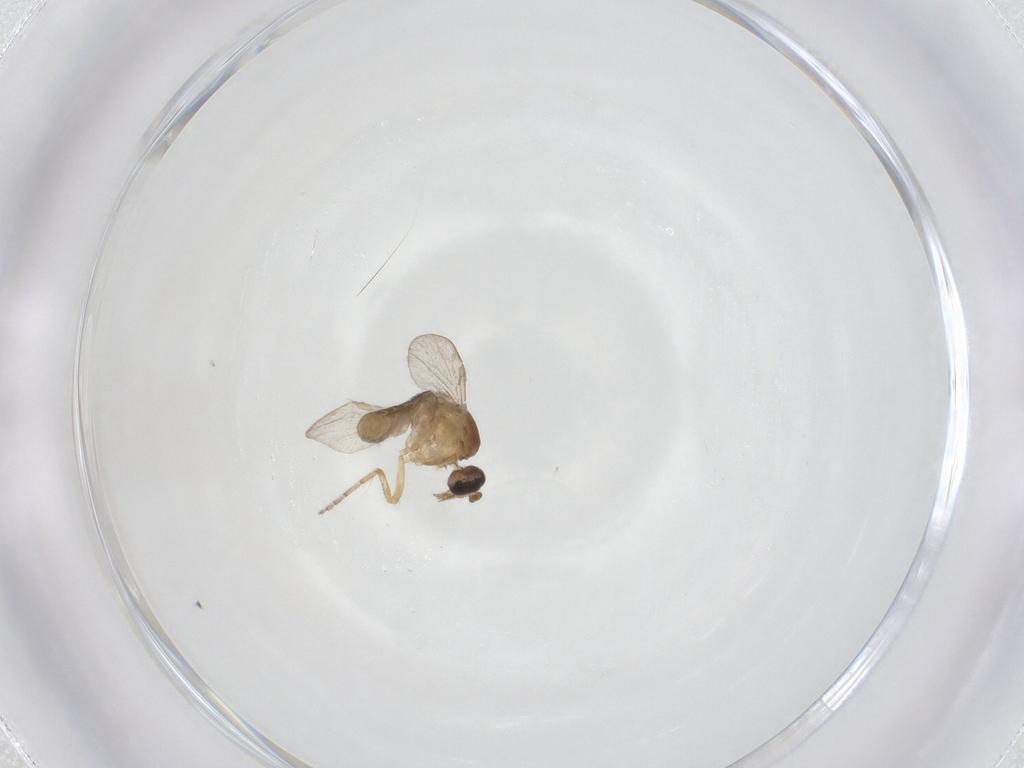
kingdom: Animalia
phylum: Arthropoda
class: Insecta
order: Diptera
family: Ceratopogonidae
